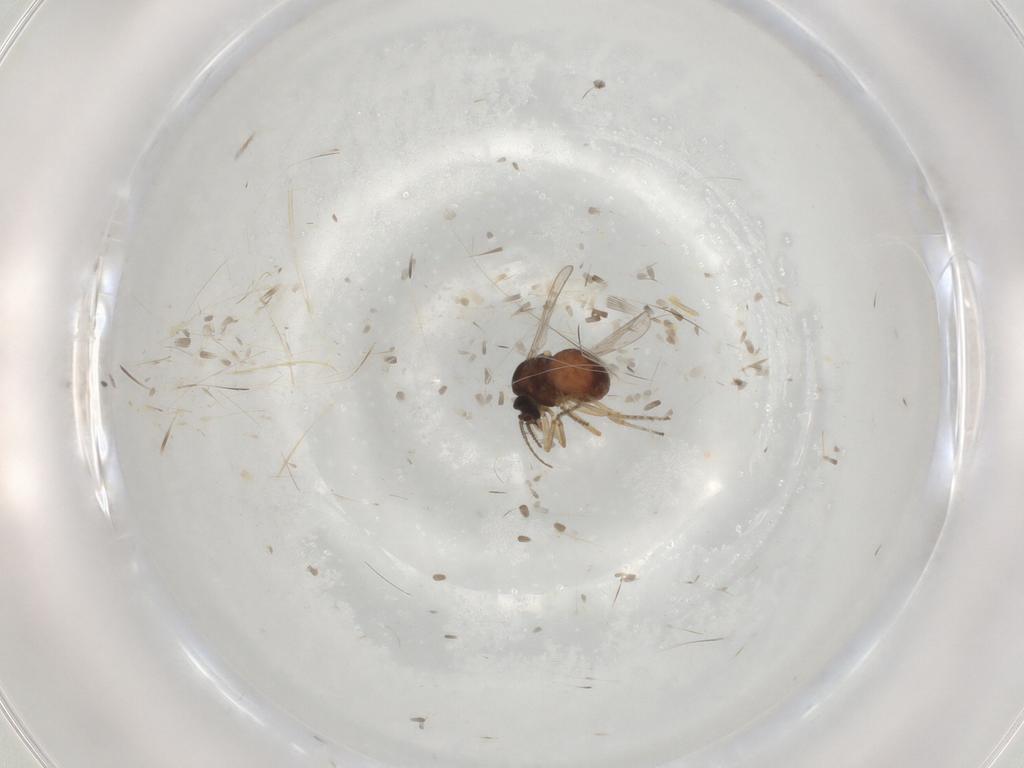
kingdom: Animalia
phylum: Arthropoda
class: Insecta
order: Diptera
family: Ceratopogonidae
